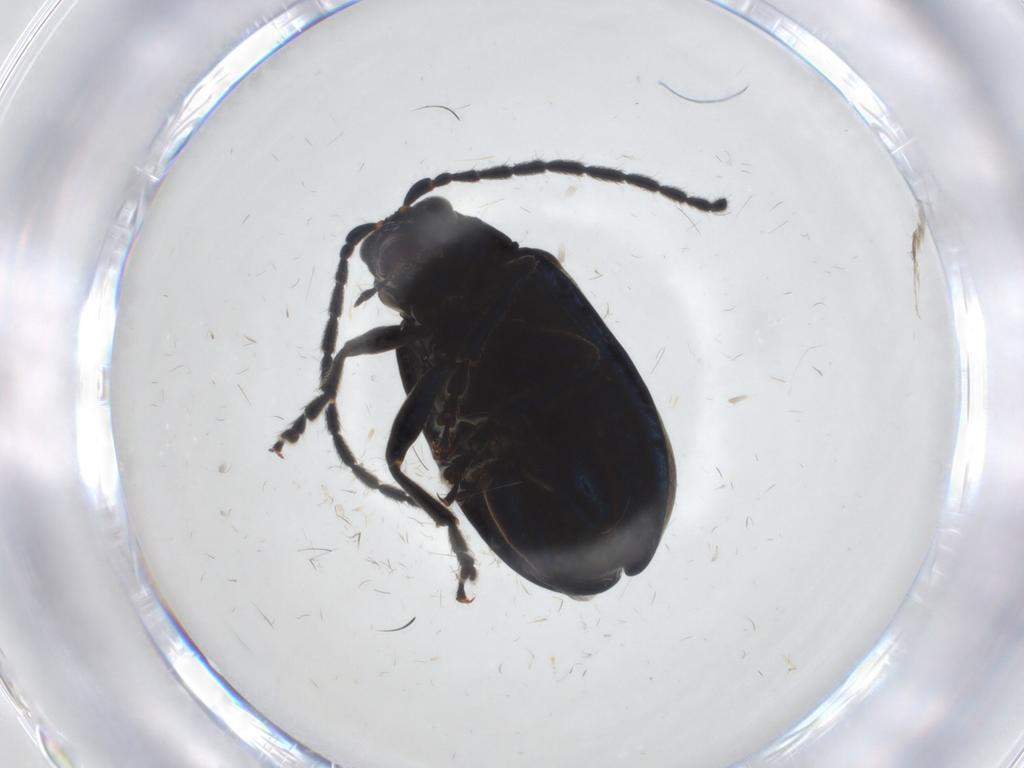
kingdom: Animalia
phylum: Arthropoda
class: Insecta
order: Coleoptera
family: Chrysomelidae
